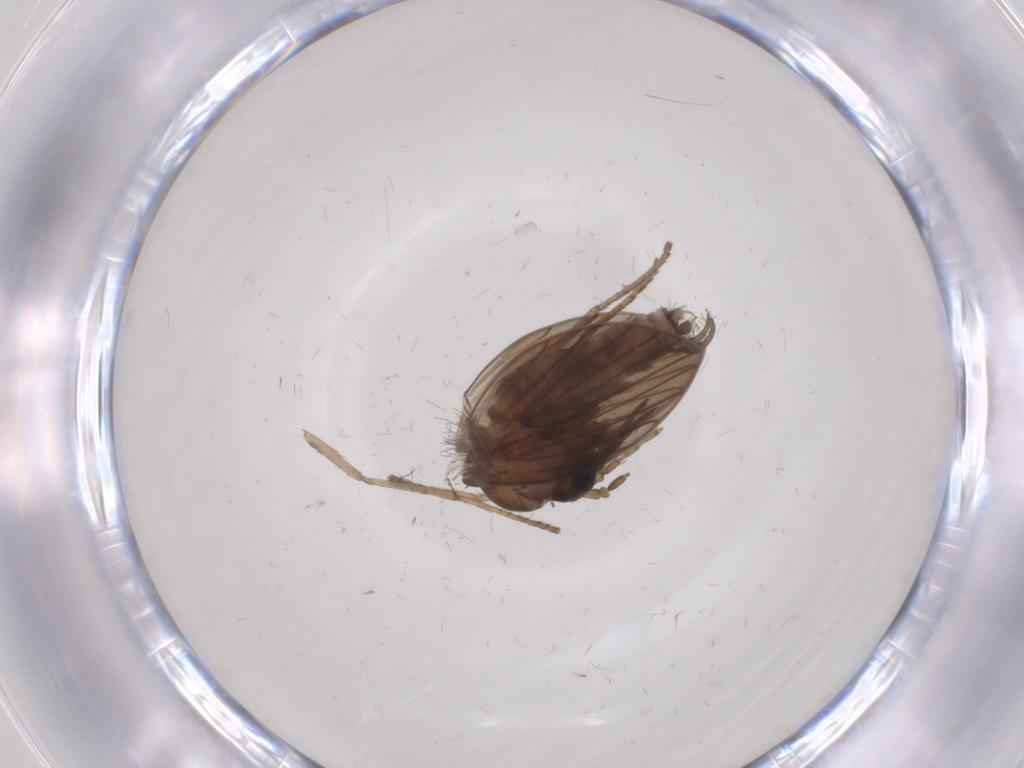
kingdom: Animalia
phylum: Arthropoda
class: Insecta
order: Diptera
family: Psychodidae
